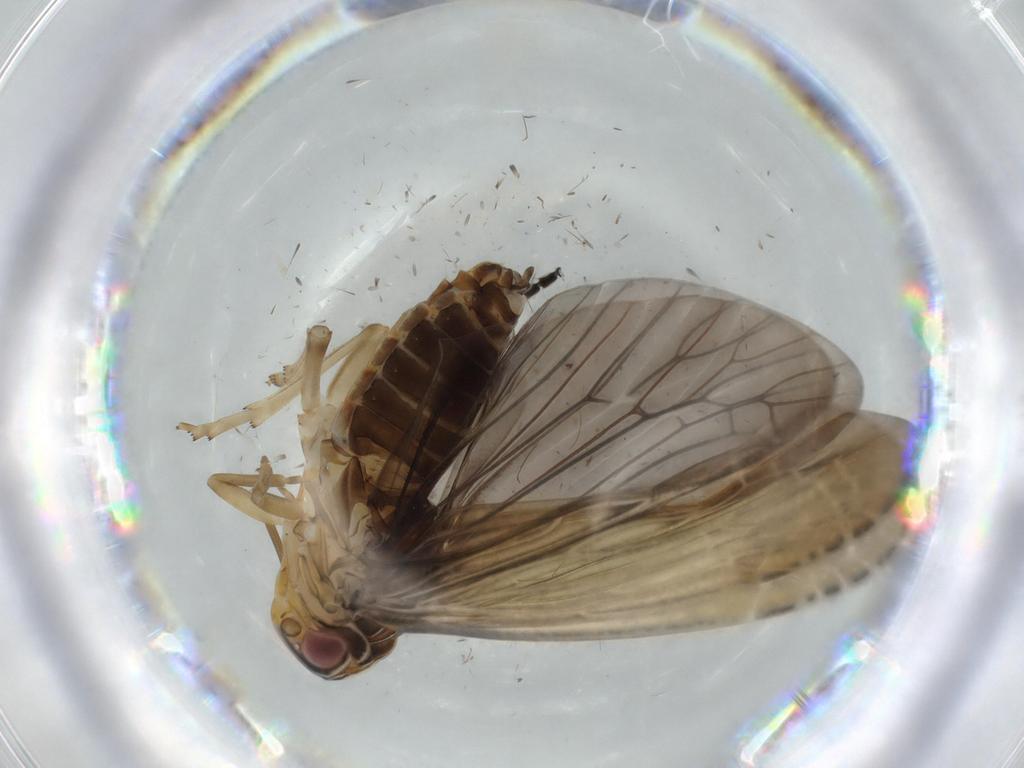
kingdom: Animalia
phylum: Arthropoda
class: Insecta
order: Hemiptera
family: Achilidae
